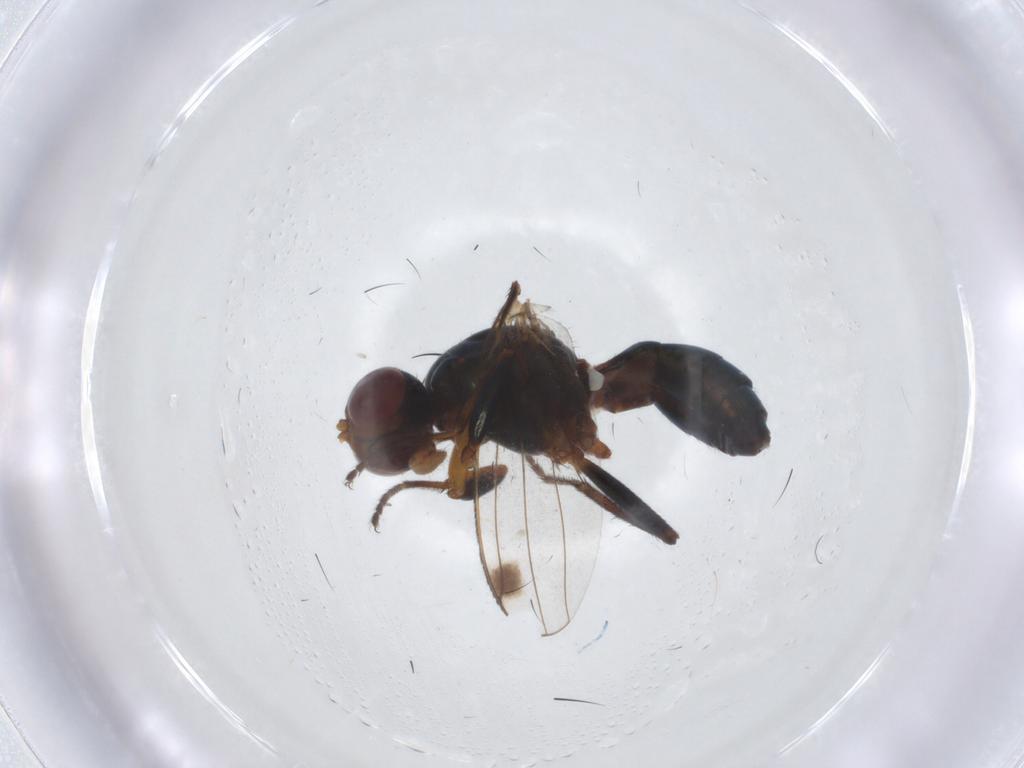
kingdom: Animalia
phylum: Arthropoda
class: Insecta
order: Diptera
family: Sepsidae
